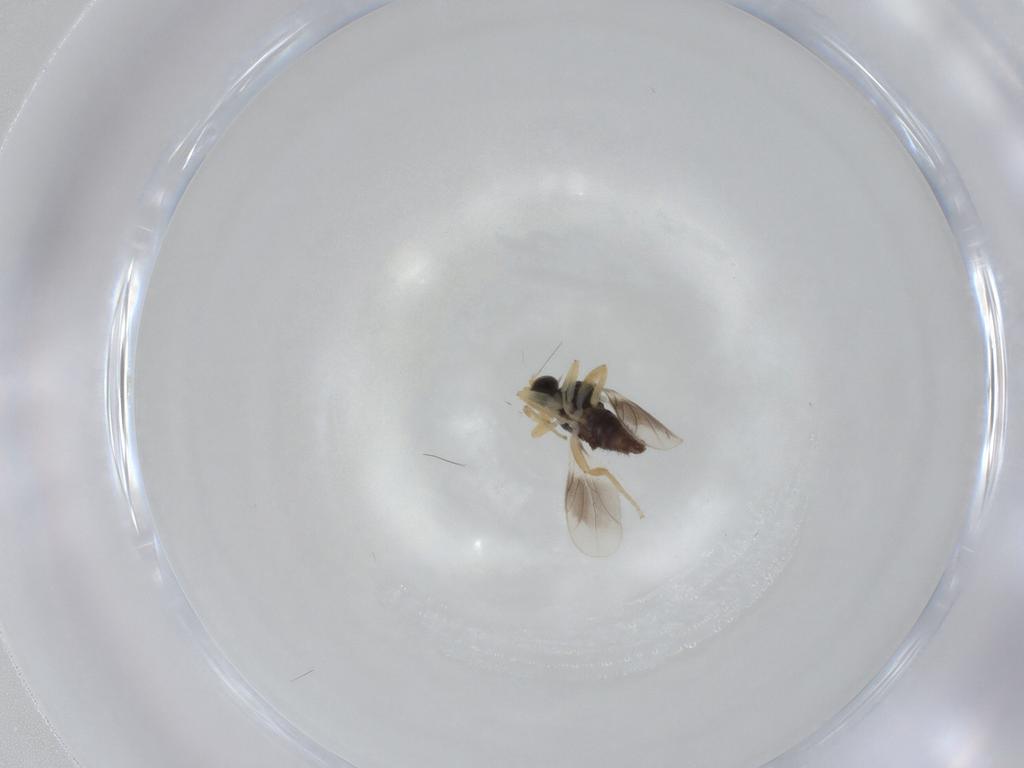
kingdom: Animalia
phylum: Arthropoda
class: Insecta
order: Diptera
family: Hybotidae
